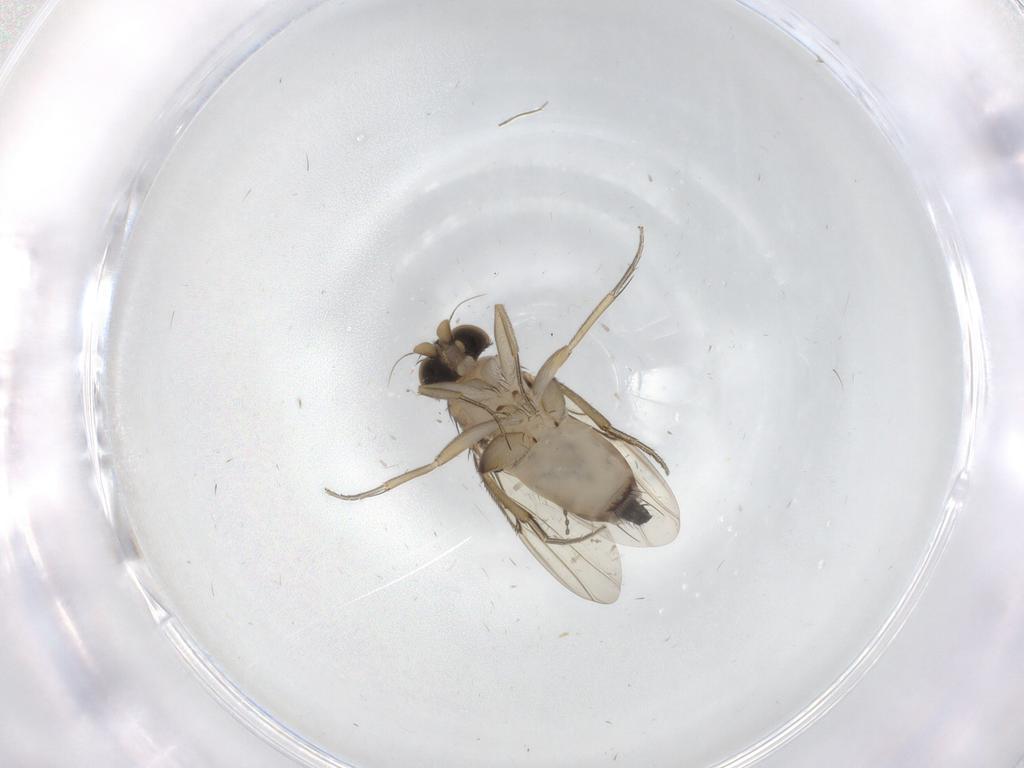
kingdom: Animalia
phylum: Arthropoda
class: Insecta
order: Diptera
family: Phoridae
